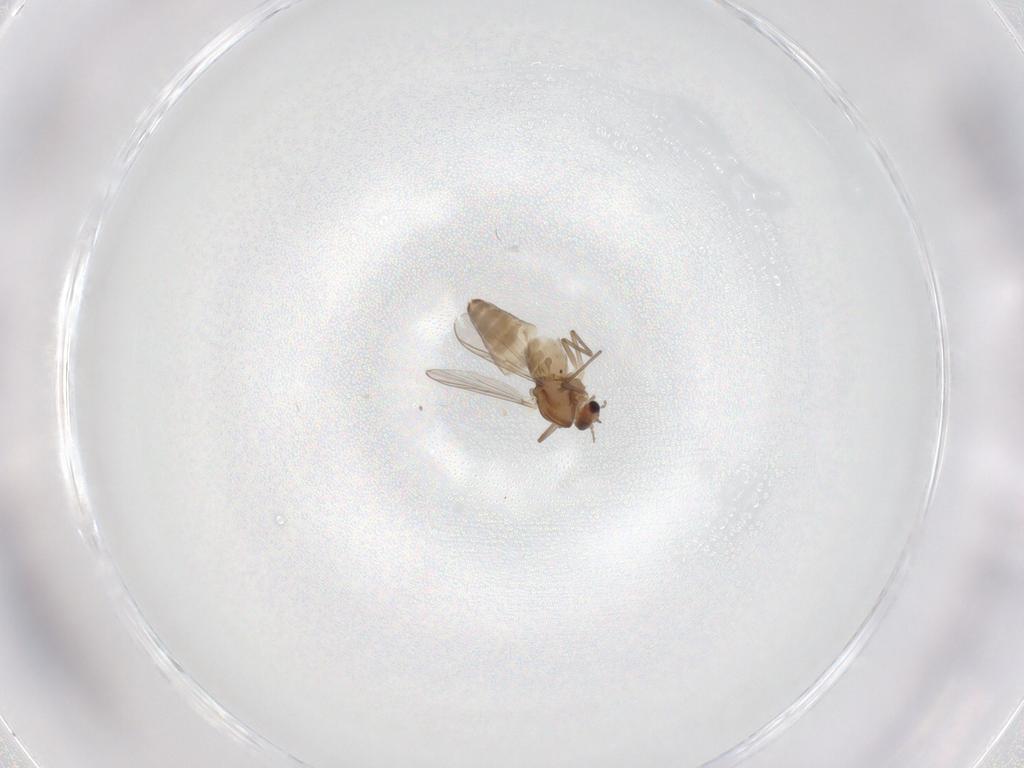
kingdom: Animalia
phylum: Arthropoda
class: Insecta
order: Diptera
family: Chironomidae
